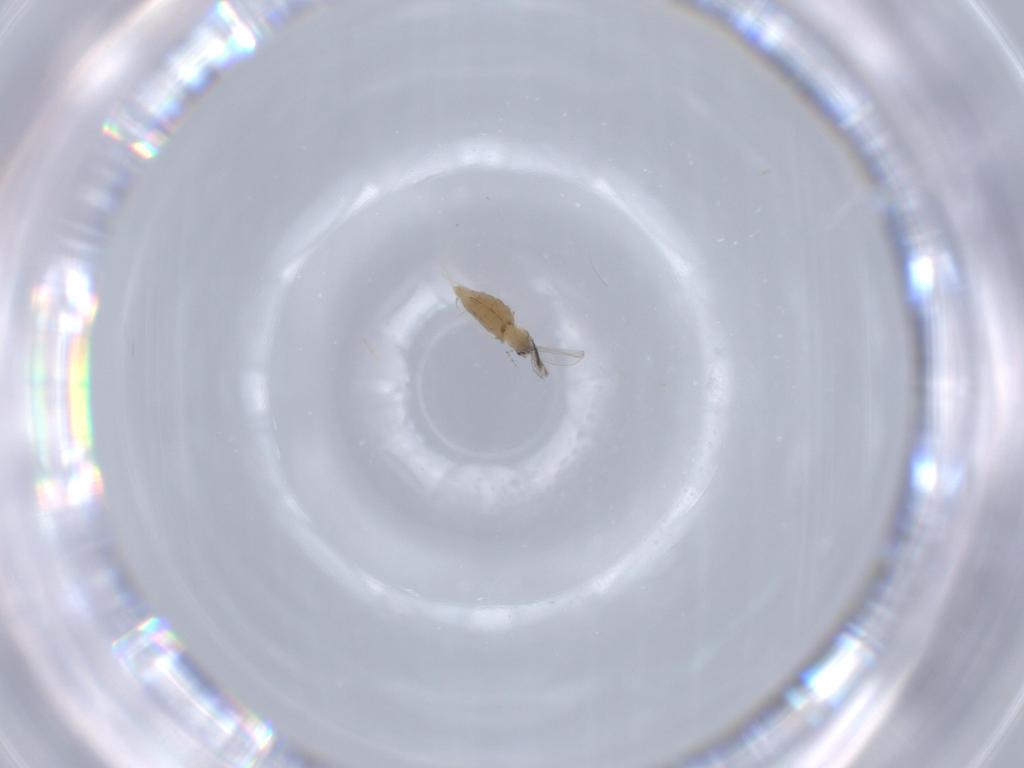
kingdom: Animalia
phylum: Arthropoda
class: Insecta
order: Diptera
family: Cecidomyiidae
